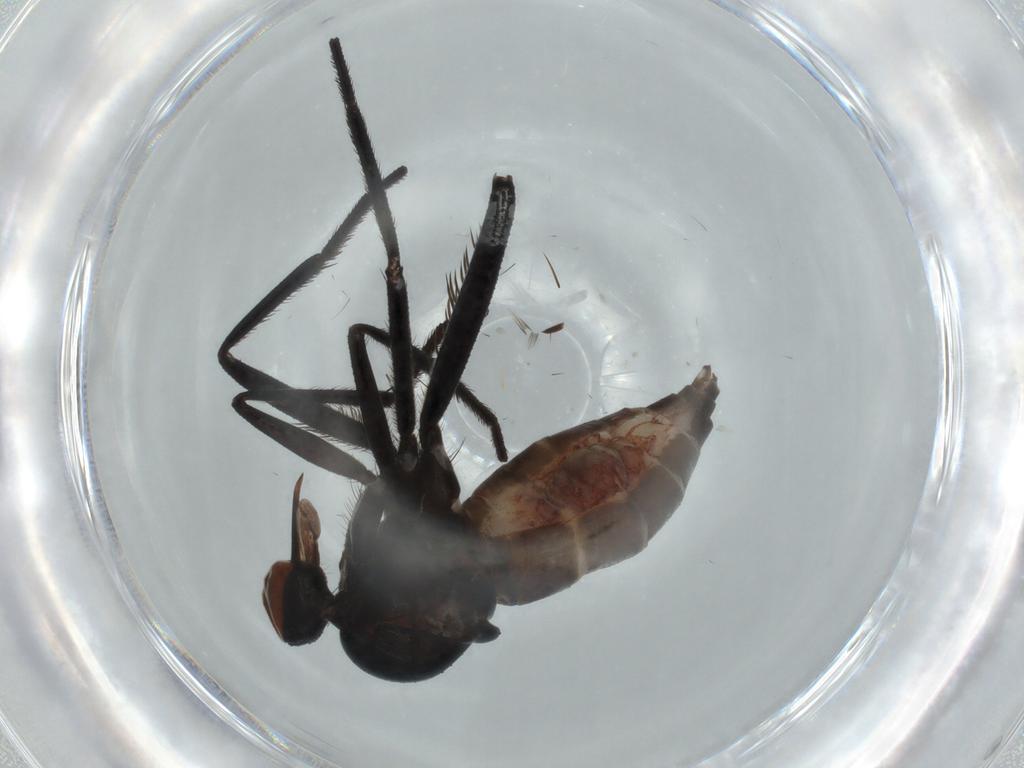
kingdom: Animalia
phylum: Arthropoda
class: Insecta
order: Diptera
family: Empididae
